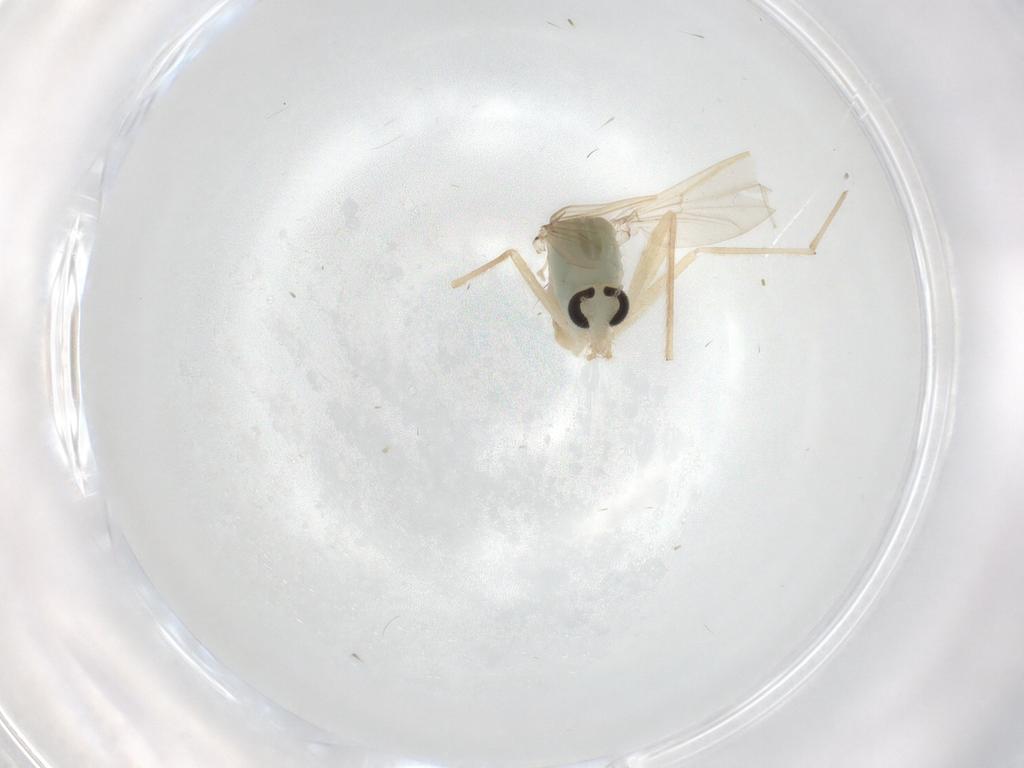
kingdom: Animalia
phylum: Arthropoda
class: Insecta
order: Diptera
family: Chironomidae
